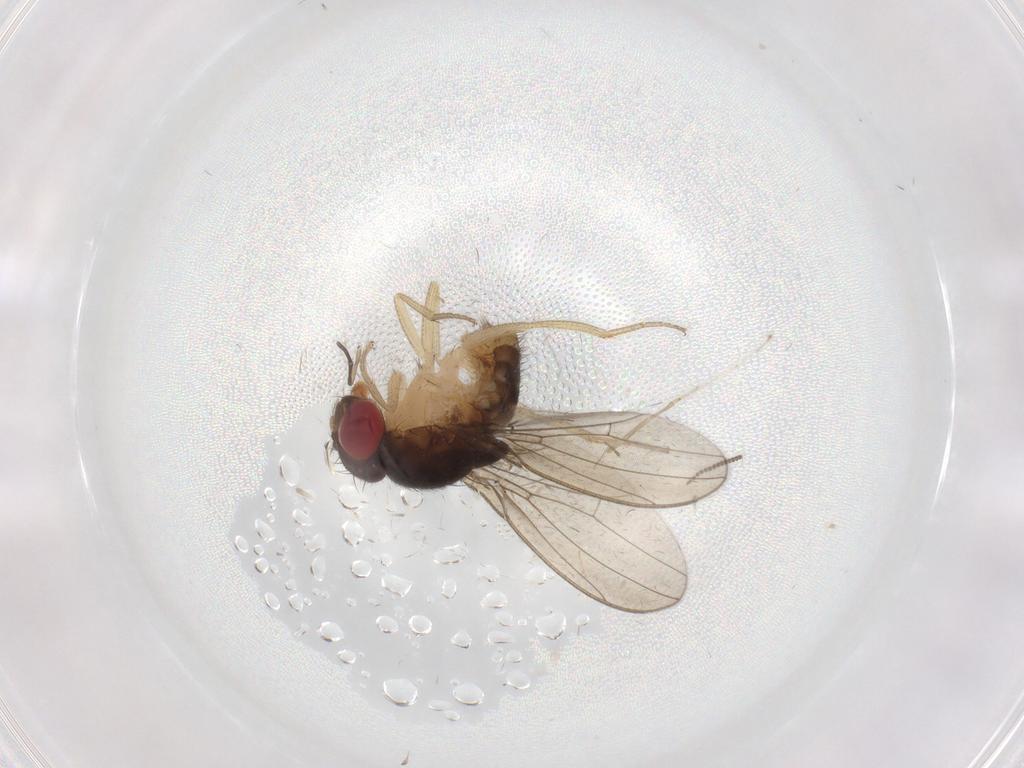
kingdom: Animalia
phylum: Arthropoda
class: Insecta
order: Diptera
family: Drosophilidae
